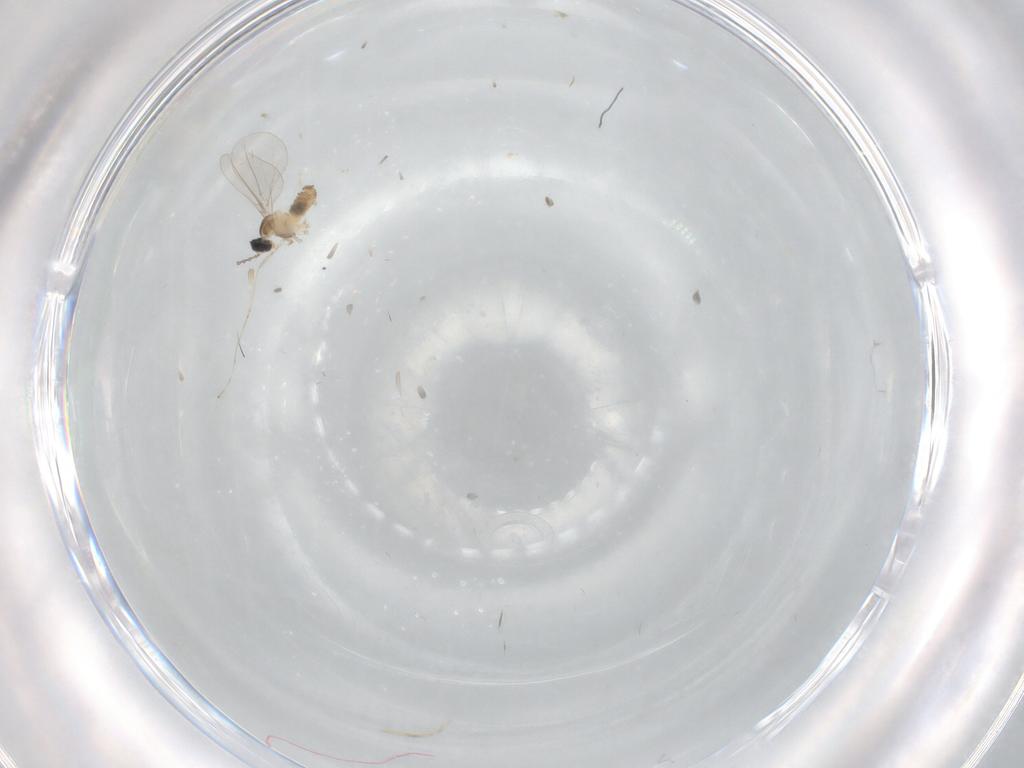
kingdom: Animalia
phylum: Arthropoda
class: Insecta
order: Diptera
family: Cecidomyiidae
